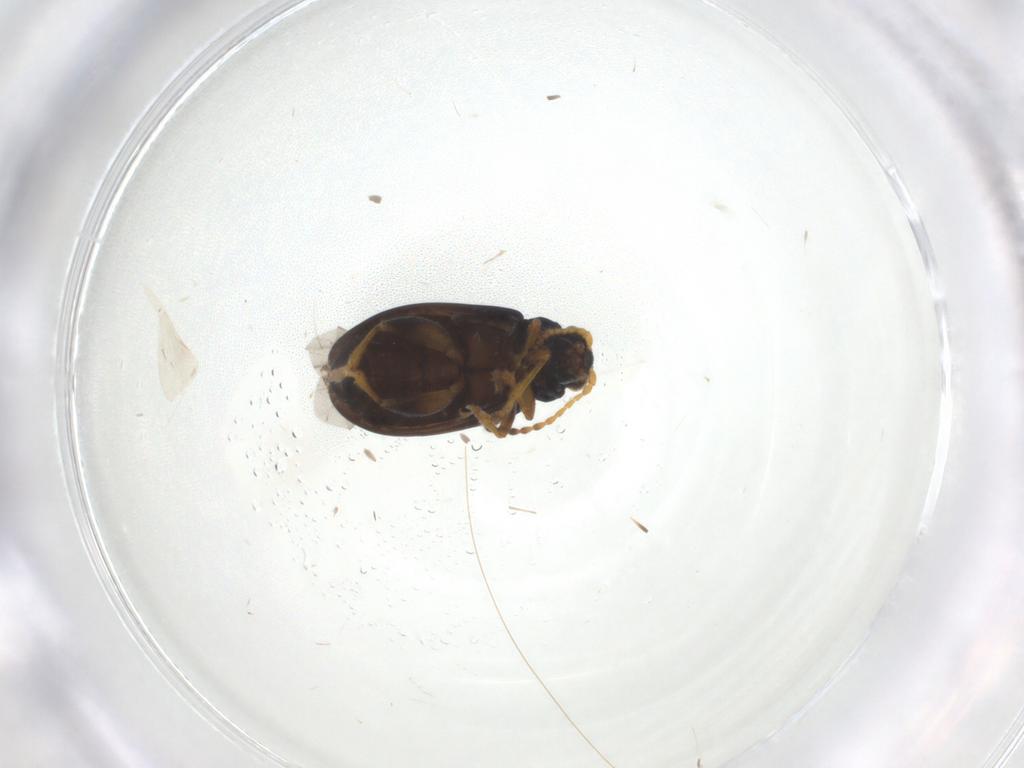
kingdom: Animalia
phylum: Arthropoda
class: Insecta
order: Coleoptera
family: Chrysomelidae
